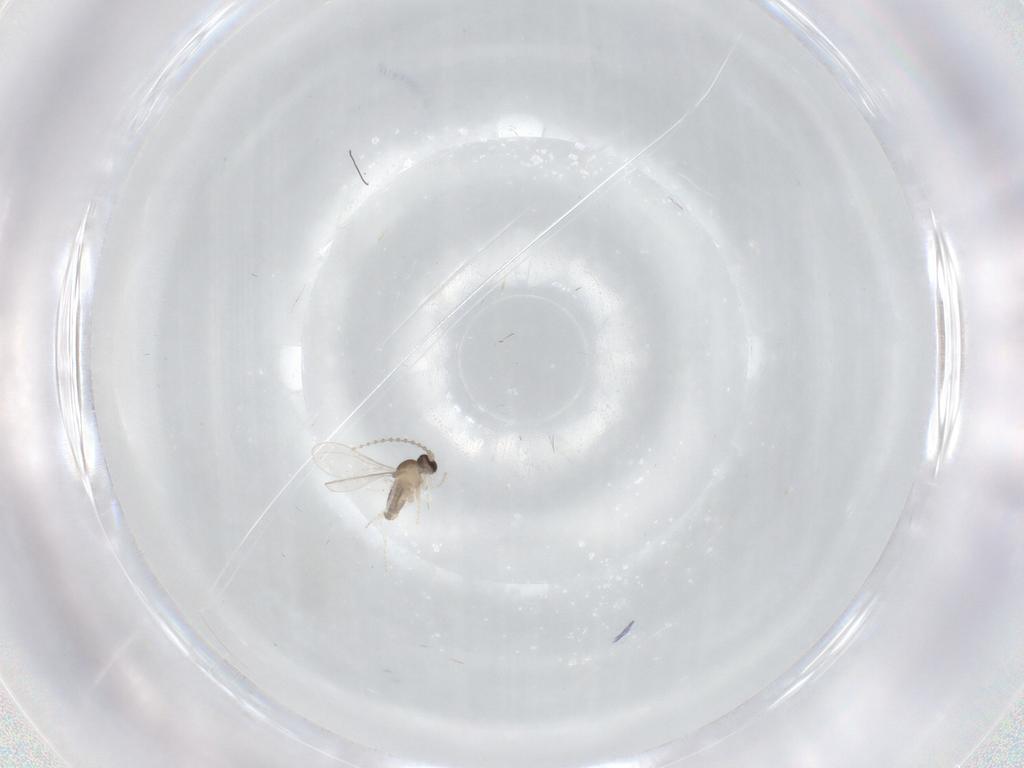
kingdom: Animalia
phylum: Arthropoda
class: Insecta
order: Diptera
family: Cecidomyiidae
